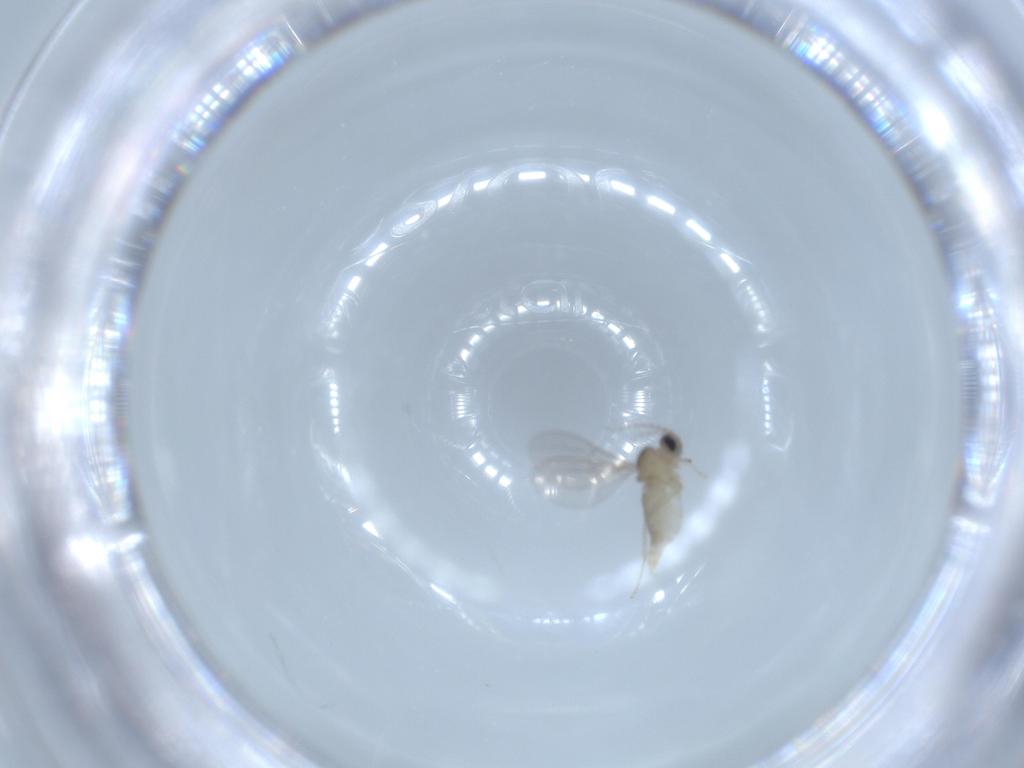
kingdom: Animalia
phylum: Arthropoda
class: Insecta
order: Diptera
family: Cecidomyiidae
